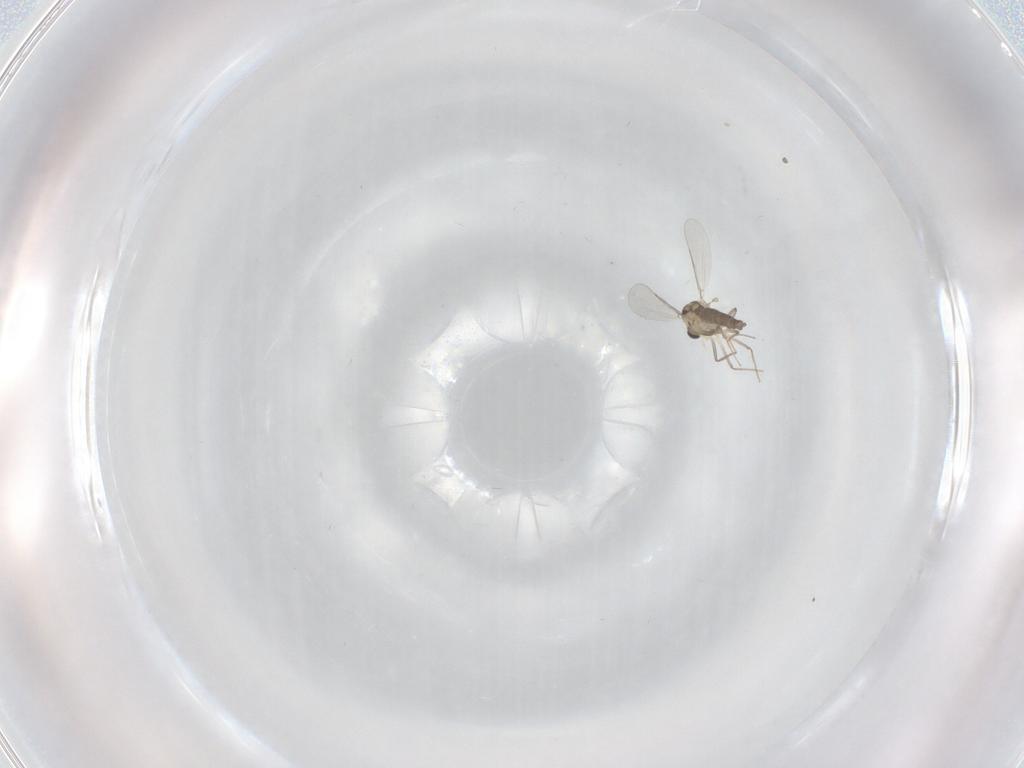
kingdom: Animalia
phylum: Arthropoda
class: Insecta
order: Diptera
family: Chironomidae
